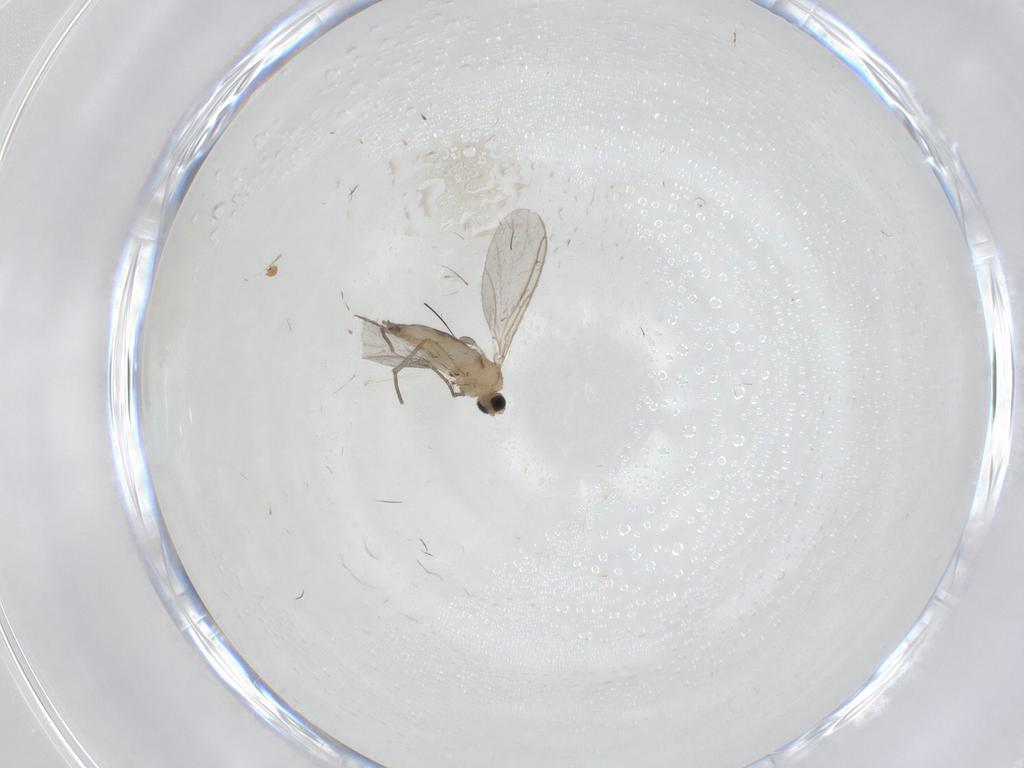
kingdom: Animalia
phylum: Arthropoda
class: Insecta
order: Diptera
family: Sciaridae
